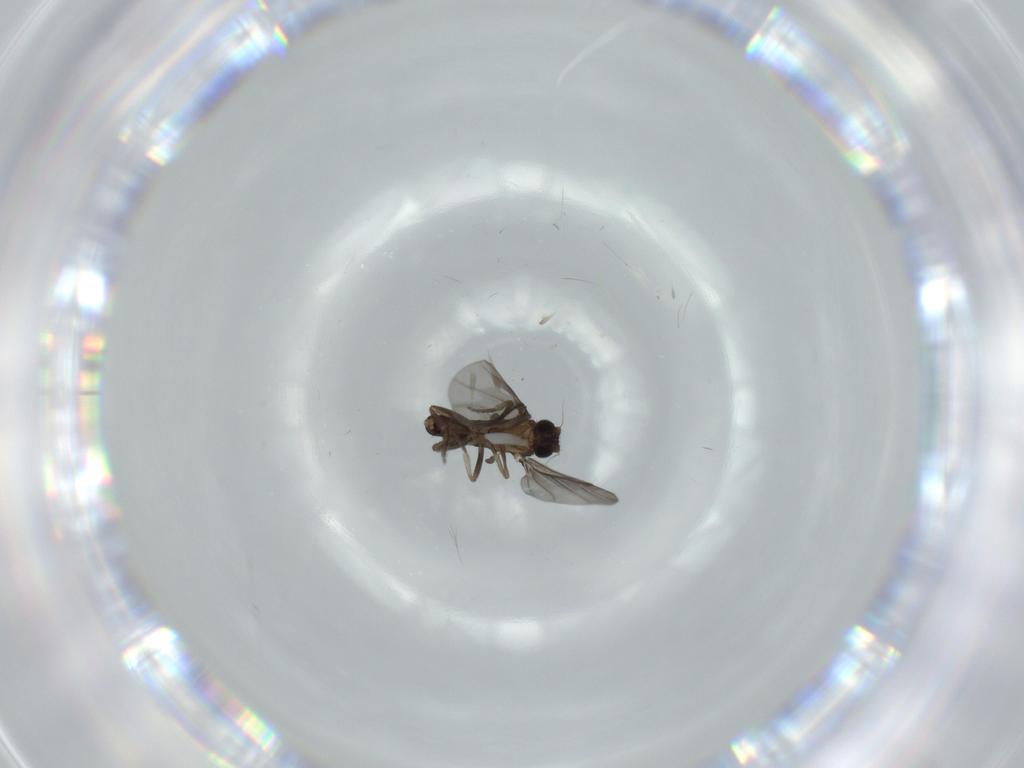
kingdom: Animalia
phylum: Arthropoda
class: Insecta
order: Diptera
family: Phoridae
